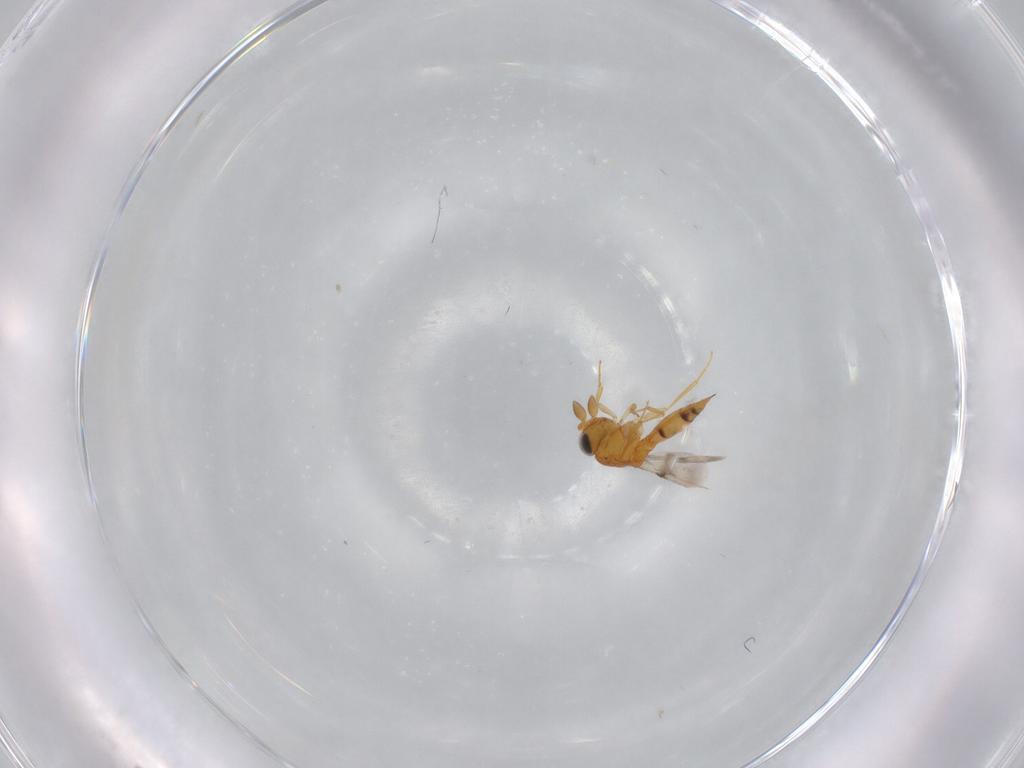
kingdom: Animalia
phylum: Arthropoda
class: Insecta
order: Hymenoptera
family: Scelionidae
